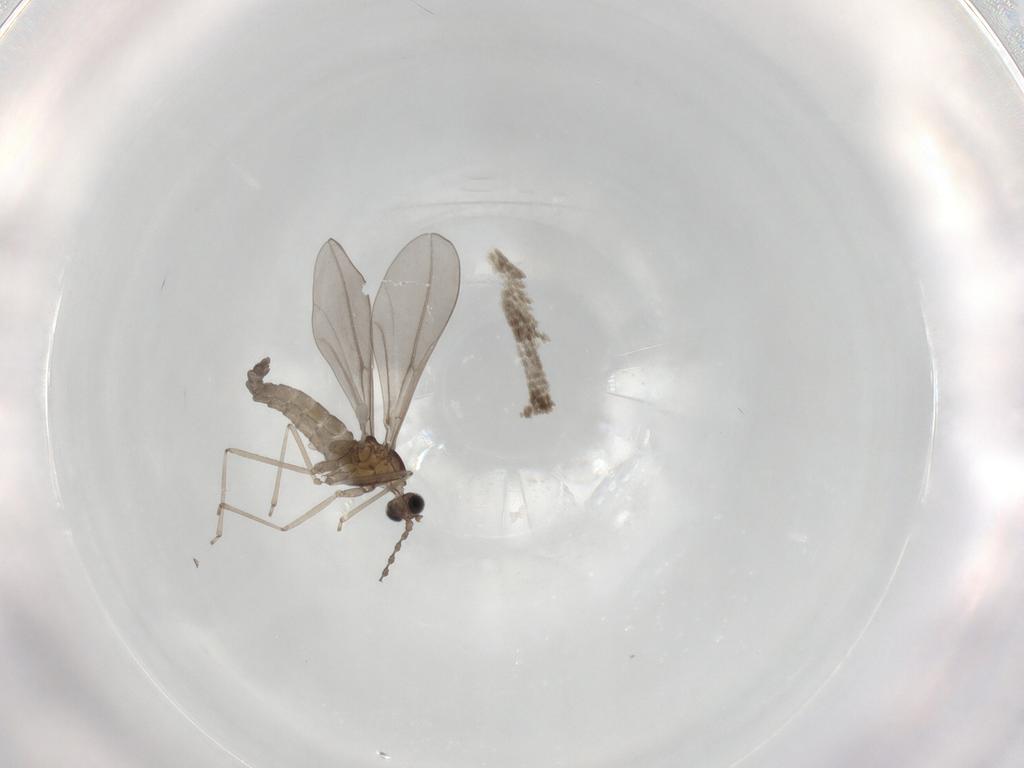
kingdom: Animalia
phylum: Arthropoda
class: Insecta
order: Diptera
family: Cecidomyiidae
